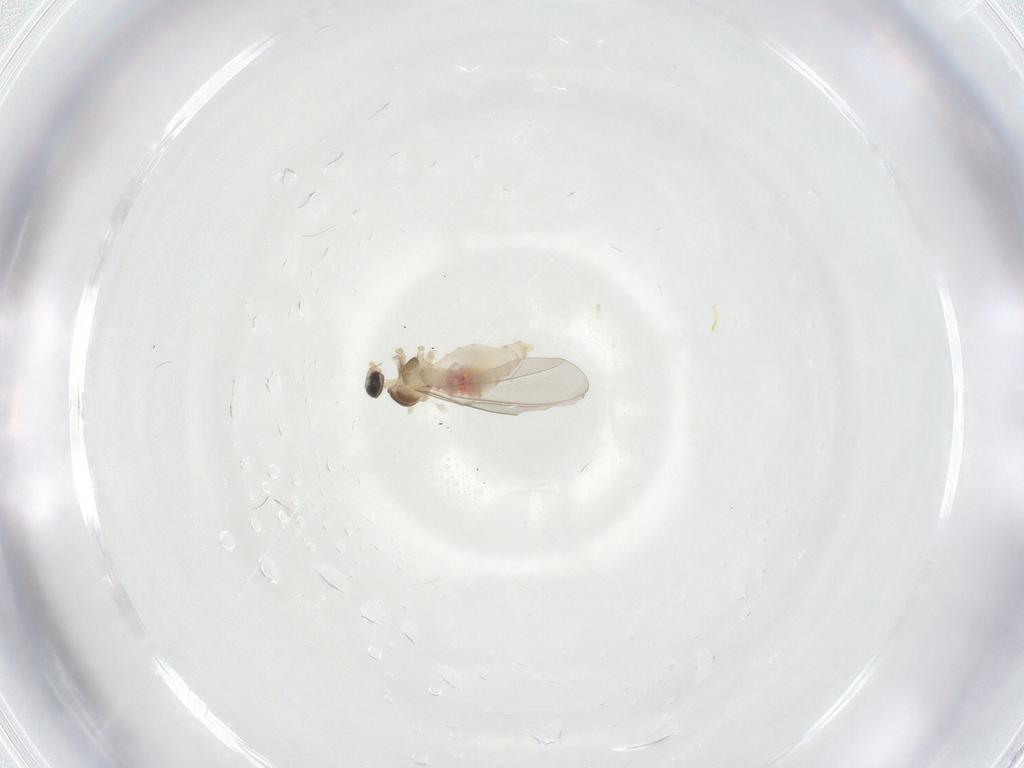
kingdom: Animalia
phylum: Arthropoda
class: Insecta
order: Diptera
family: Cecidomyiidae
